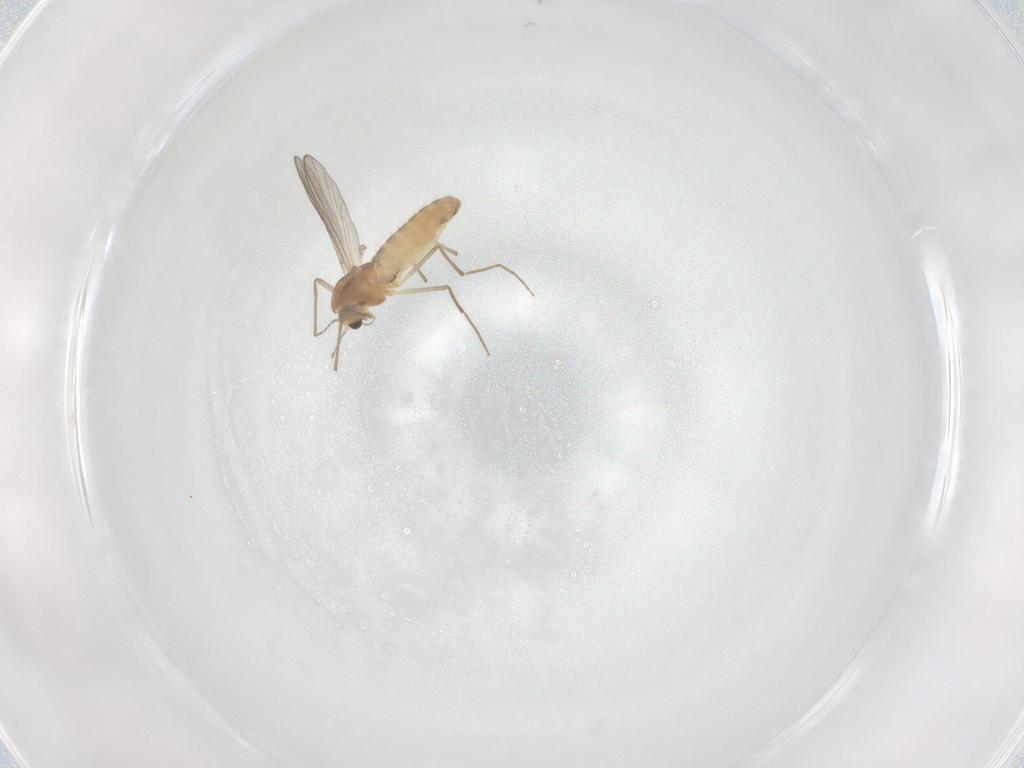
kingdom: Animalia
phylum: Arthropoda
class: Insecta
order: Diptera
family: Chironomidae
